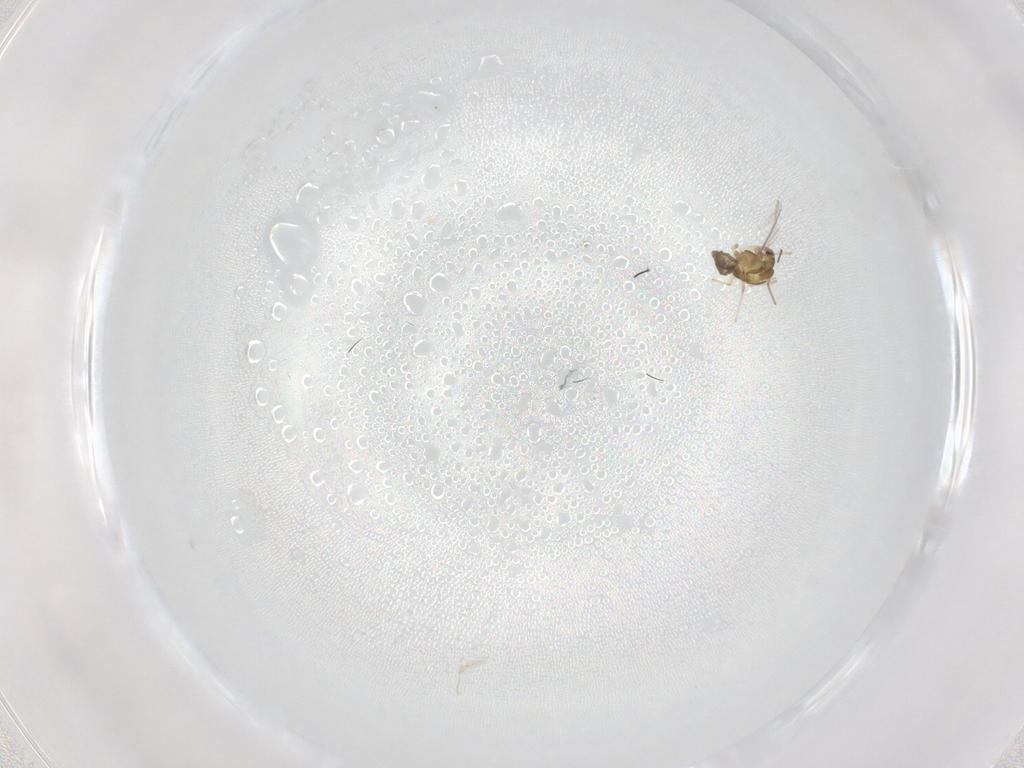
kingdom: Animalia
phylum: Arthropoda
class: Insecta
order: Diptera
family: Chironomidae
